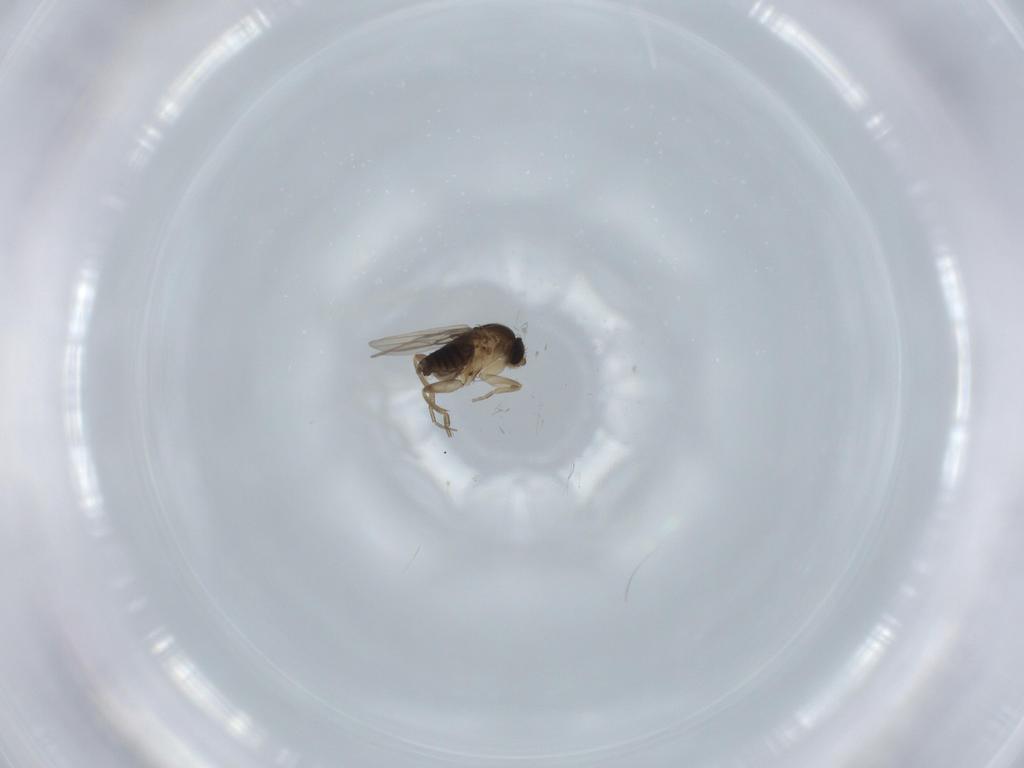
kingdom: Animalia
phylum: Arthropoda
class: Insecta
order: Diptera
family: Phoridae
